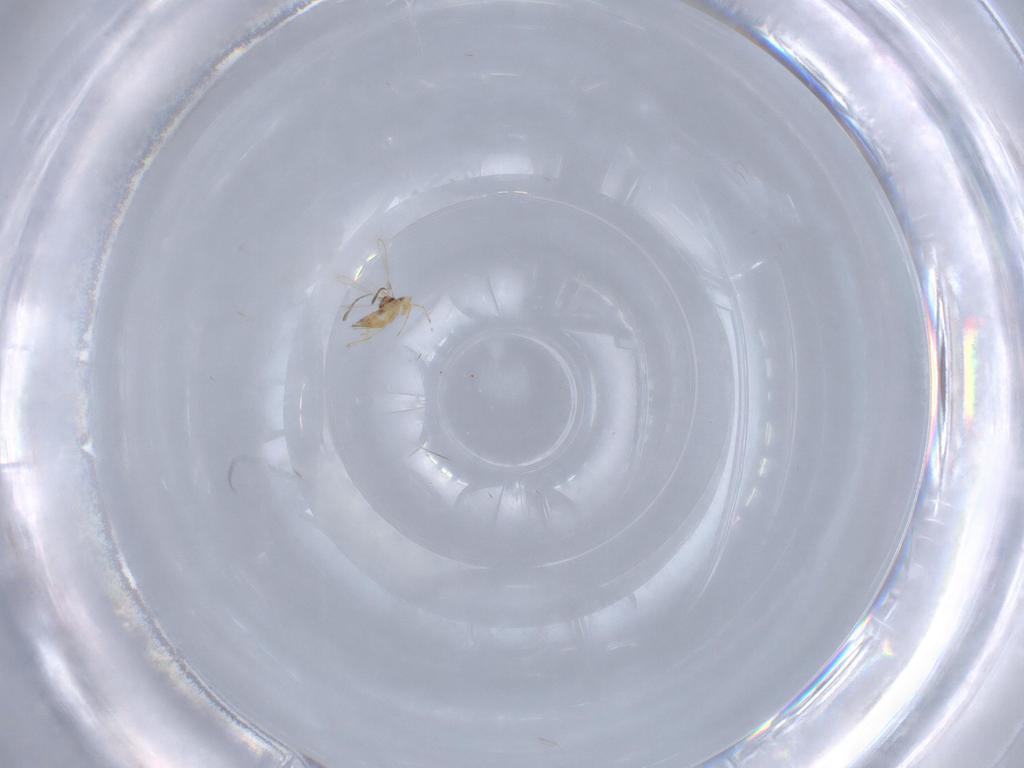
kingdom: Animalia
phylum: Arthropoda
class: Insecta
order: Hymenoptera
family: Mymaridae
